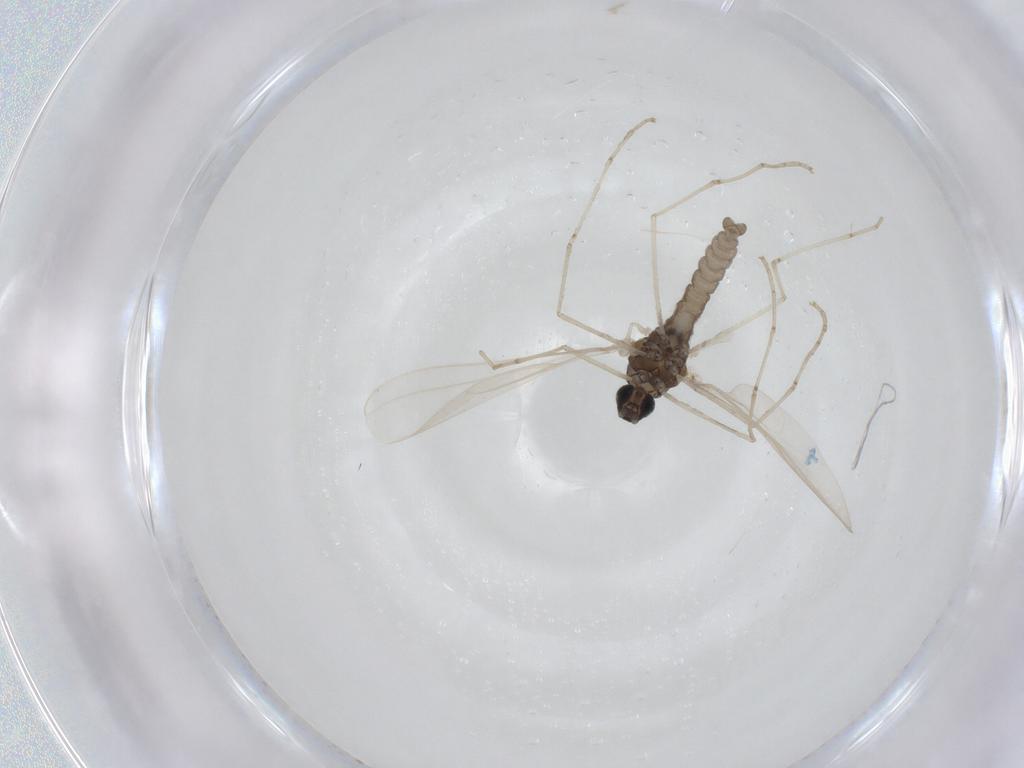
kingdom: Animalia
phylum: Arthropoda
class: Insecta
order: Diptera
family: Cecidomyiidae
